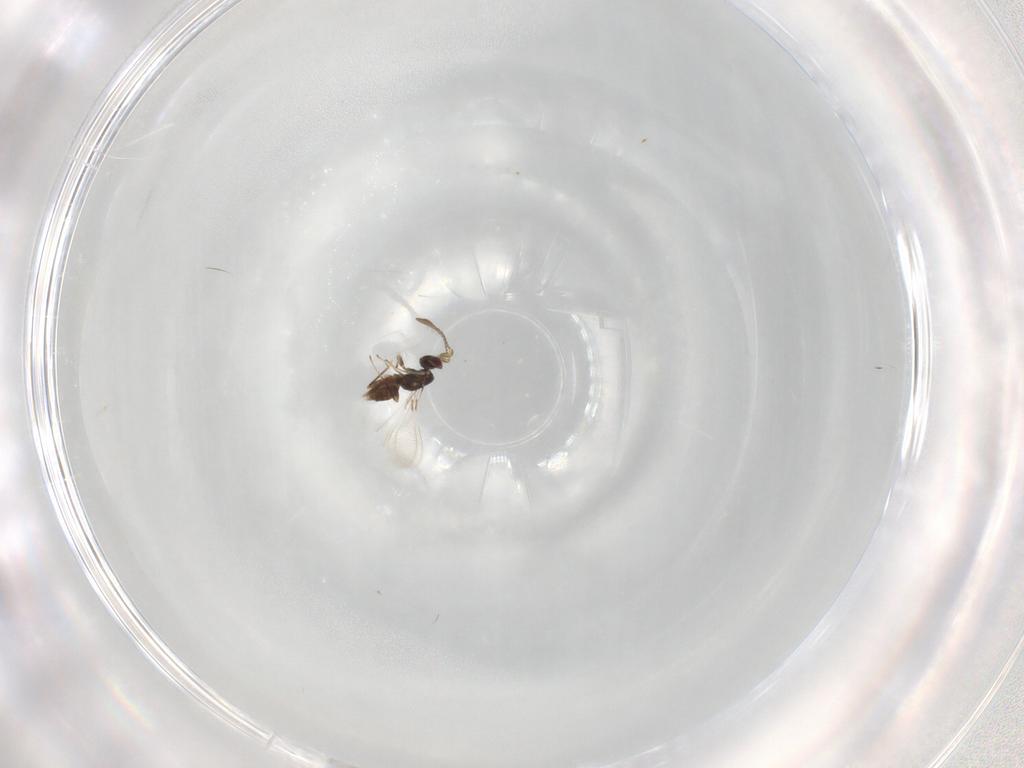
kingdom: Animalia
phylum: Arthropoda
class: Insecta
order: Hymenoptera
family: Mymaridae
